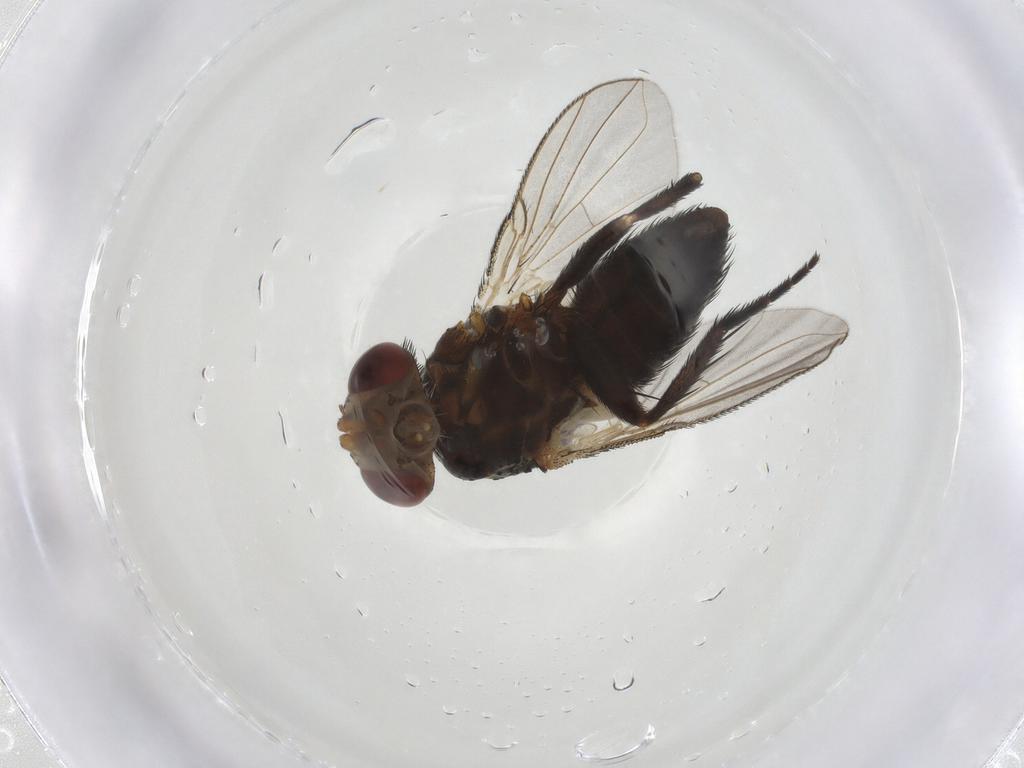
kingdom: Animalia
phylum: Arthropoda
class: Insecta
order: Diptera
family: Tachinidae
